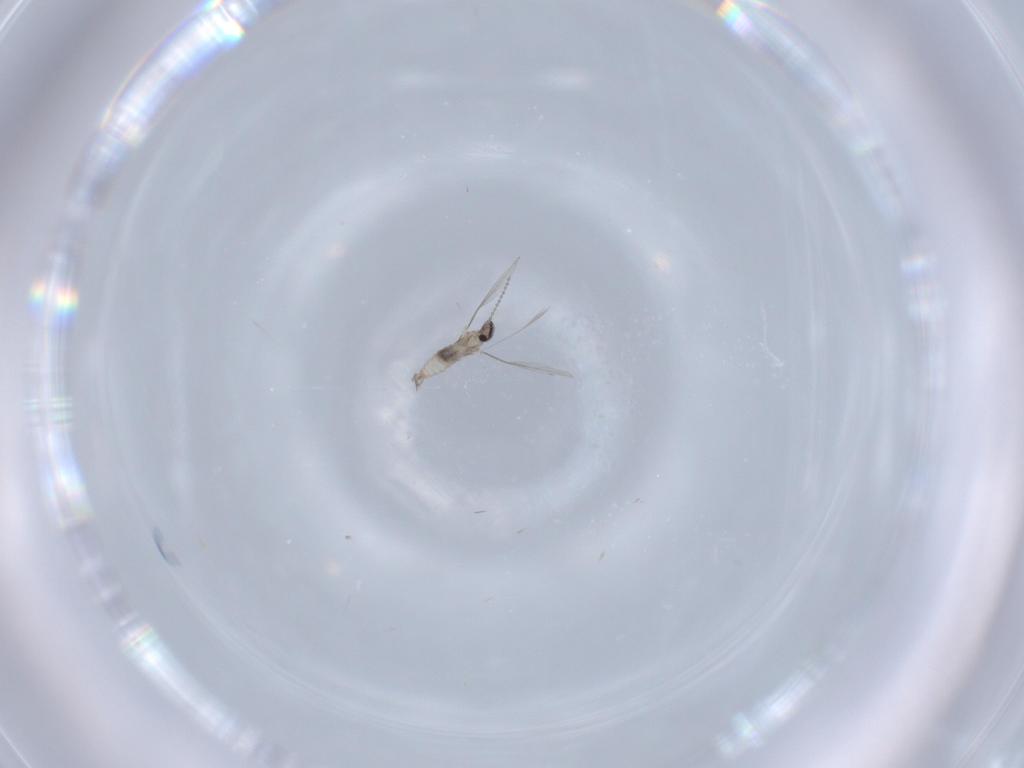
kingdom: Animalia
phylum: Arthropoda
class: Insecta
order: Diptera
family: Cecidomyiidae
